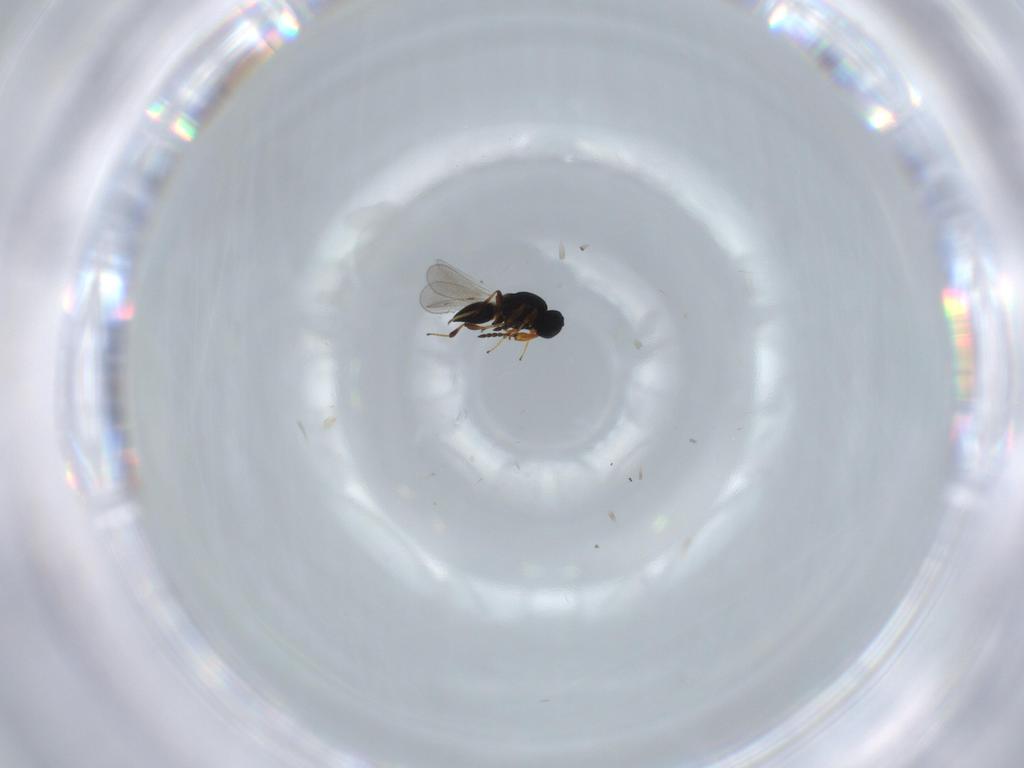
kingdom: Animalia
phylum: Arthropoda
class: Insecta
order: Hymenoptera
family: Platygastridae
